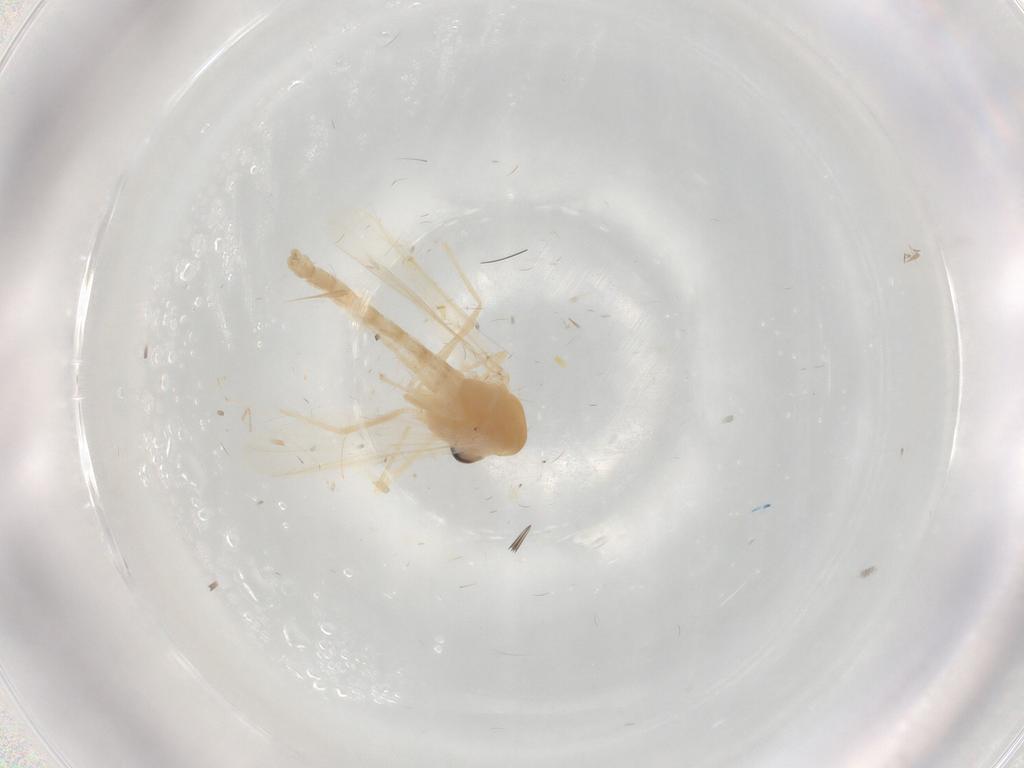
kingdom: Animalia
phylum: Arthropoda
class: Insecta
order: Diptera
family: Chironomidae
